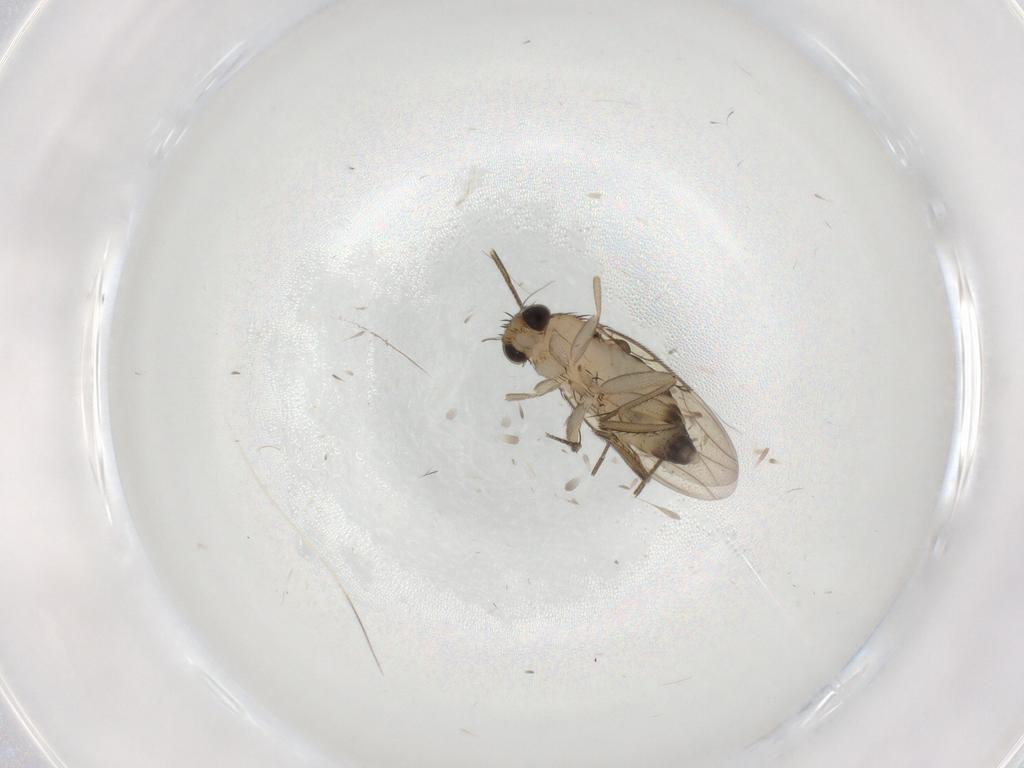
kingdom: Animalia
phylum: Arthropoda
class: Insecta
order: Diptera
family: Phoridae
